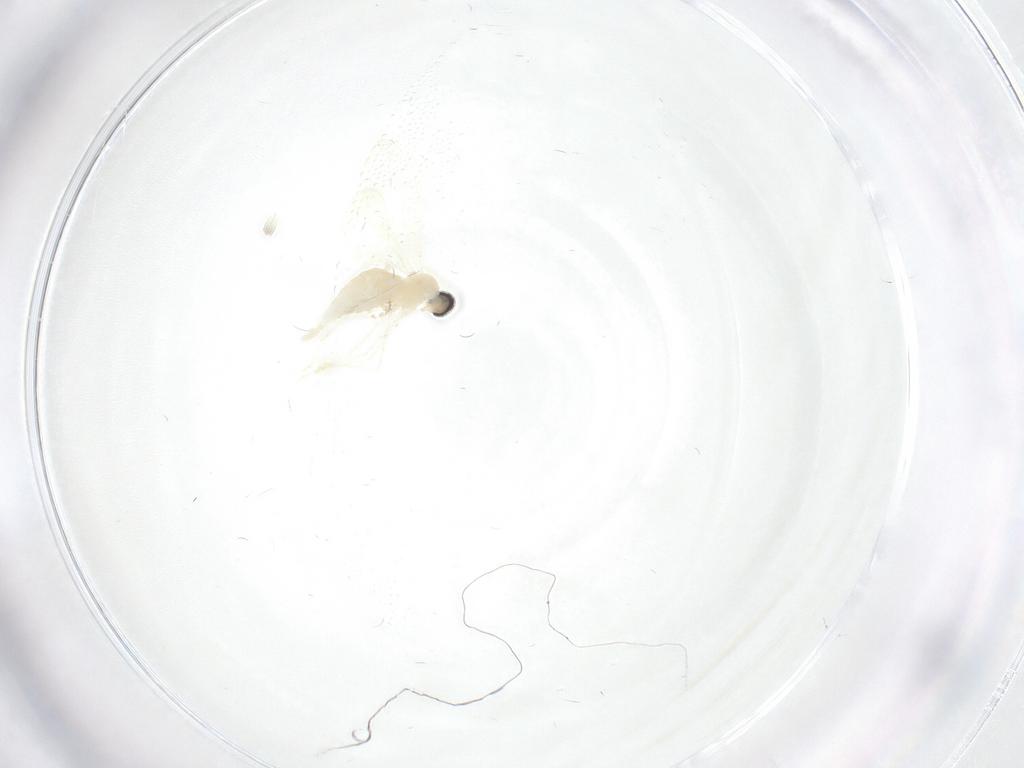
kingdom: Animalia
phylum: Arthropoda
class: Insecta
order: Diptera
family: Cecidomyiidae
